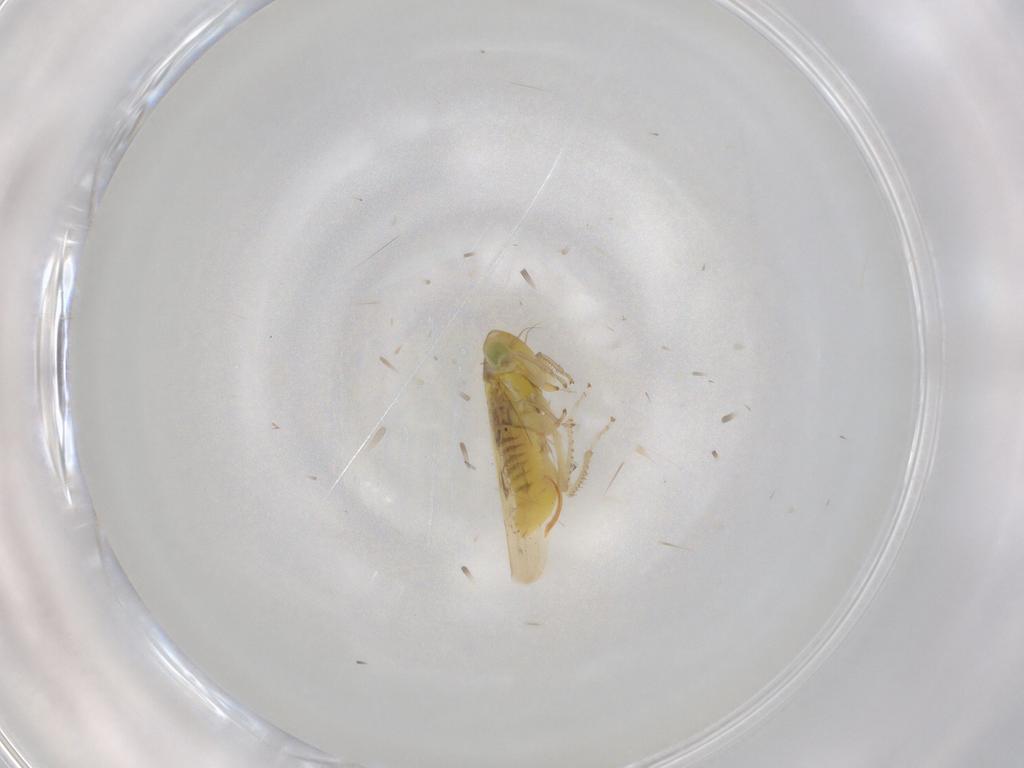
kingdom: Animalia
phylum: Arthropoda
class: Insecta
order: Hemiptera
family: Cicadellidae
